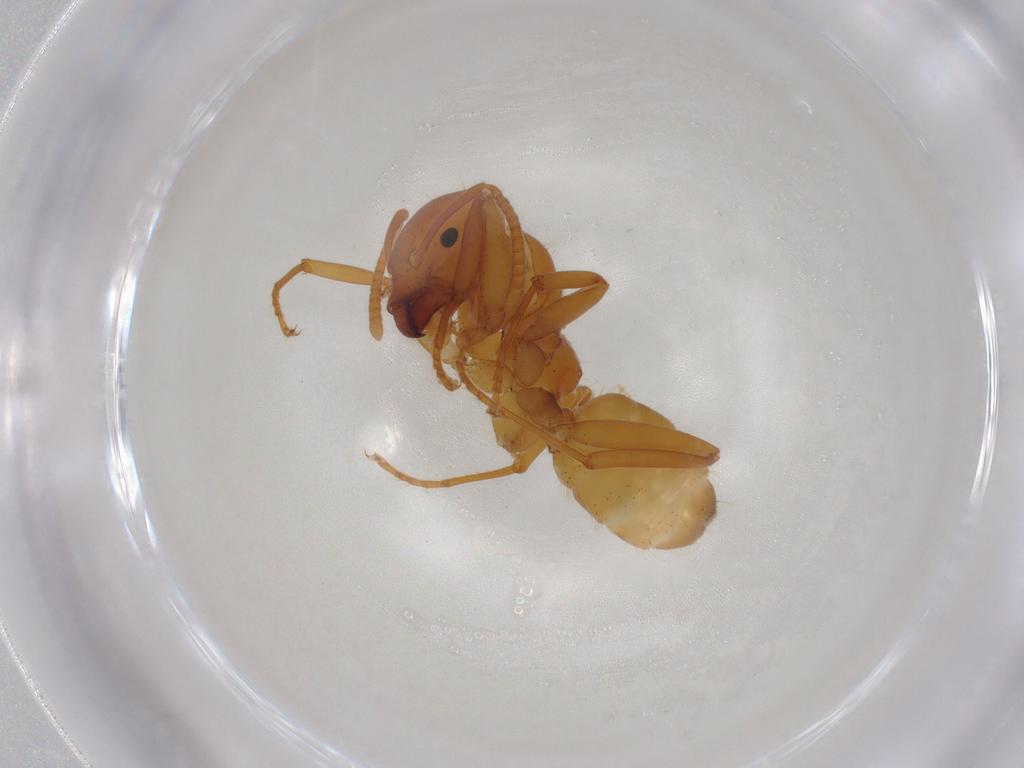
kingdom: Animalia
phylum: Arthropoda
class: Insecta
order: Hymenoptera
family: Formicidae
